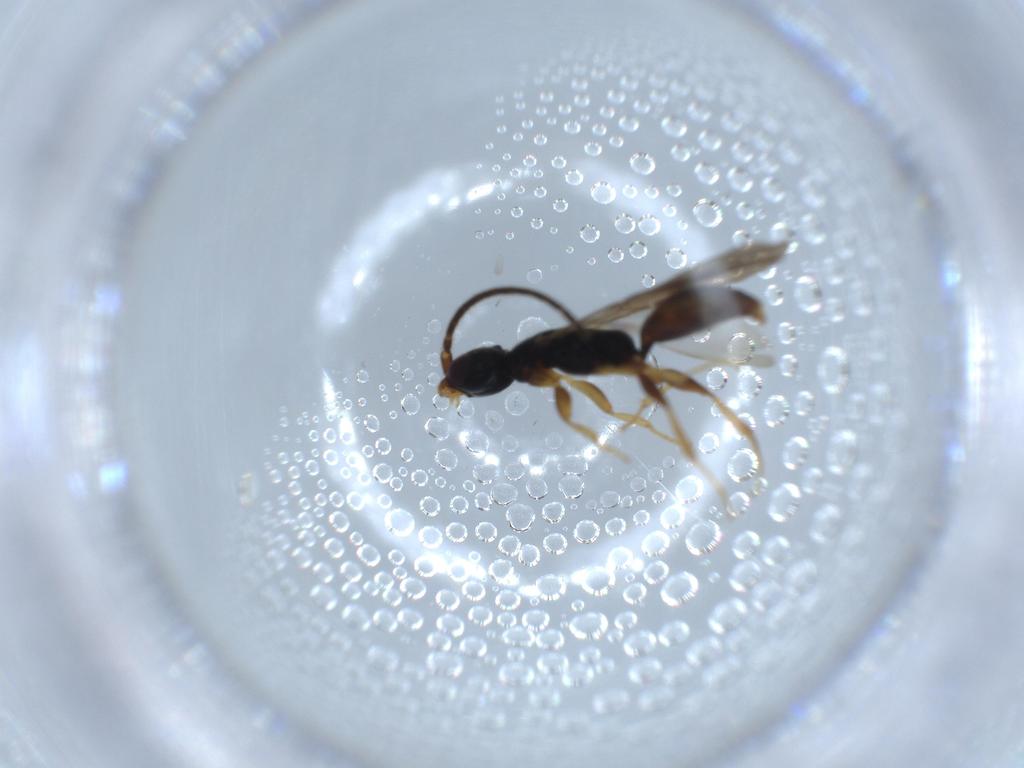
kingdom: Animalia
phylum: Arthropoda
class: Insecta
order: Hymenoptera
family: Bethylidae
